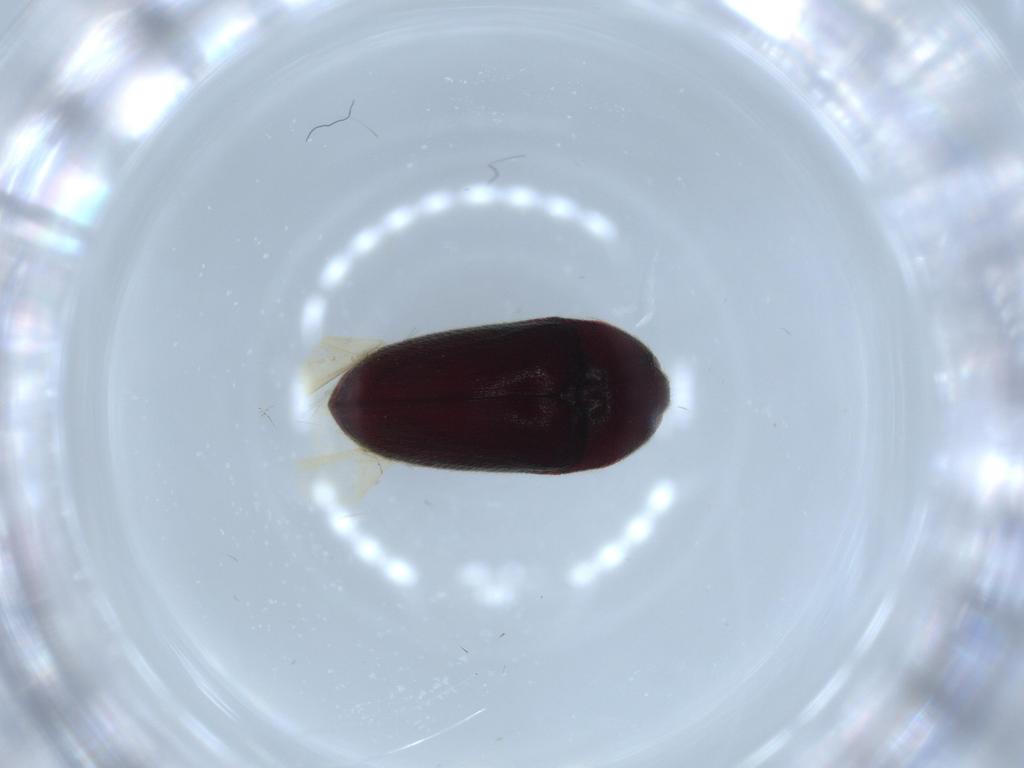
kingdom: Animalia
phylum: Arthropoda
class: Insecta
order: Coleoptera
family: Throscidae
